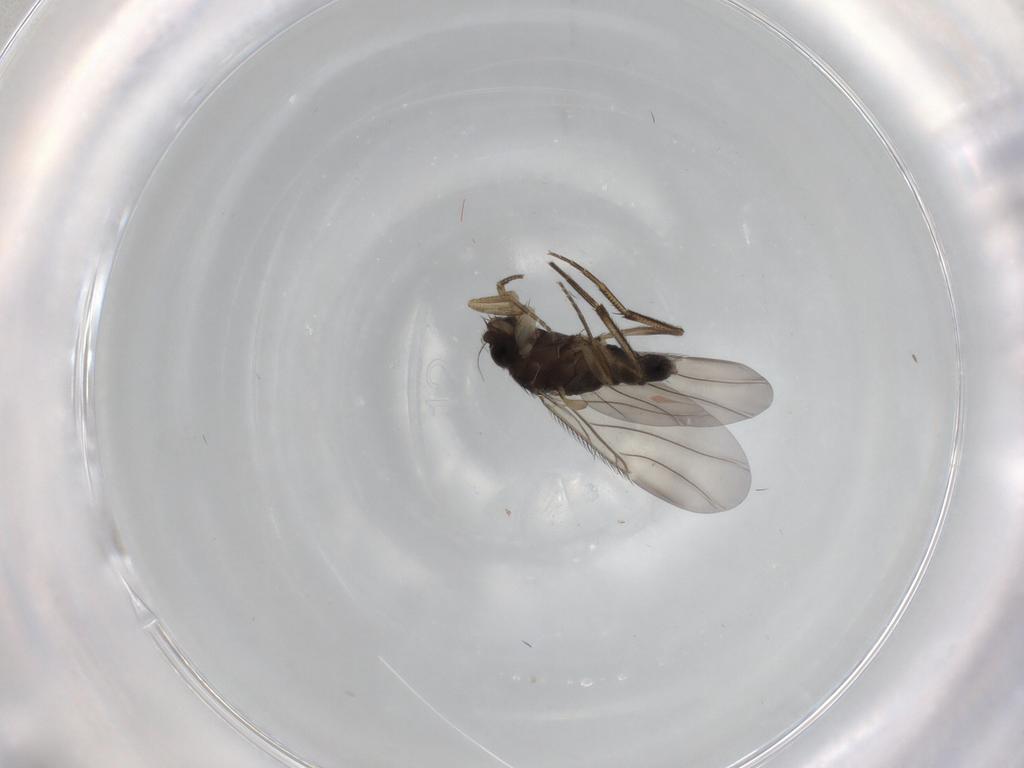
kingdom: Animalia
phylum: Arthropoda
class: Insecta
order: Diptera
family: Phoridae
